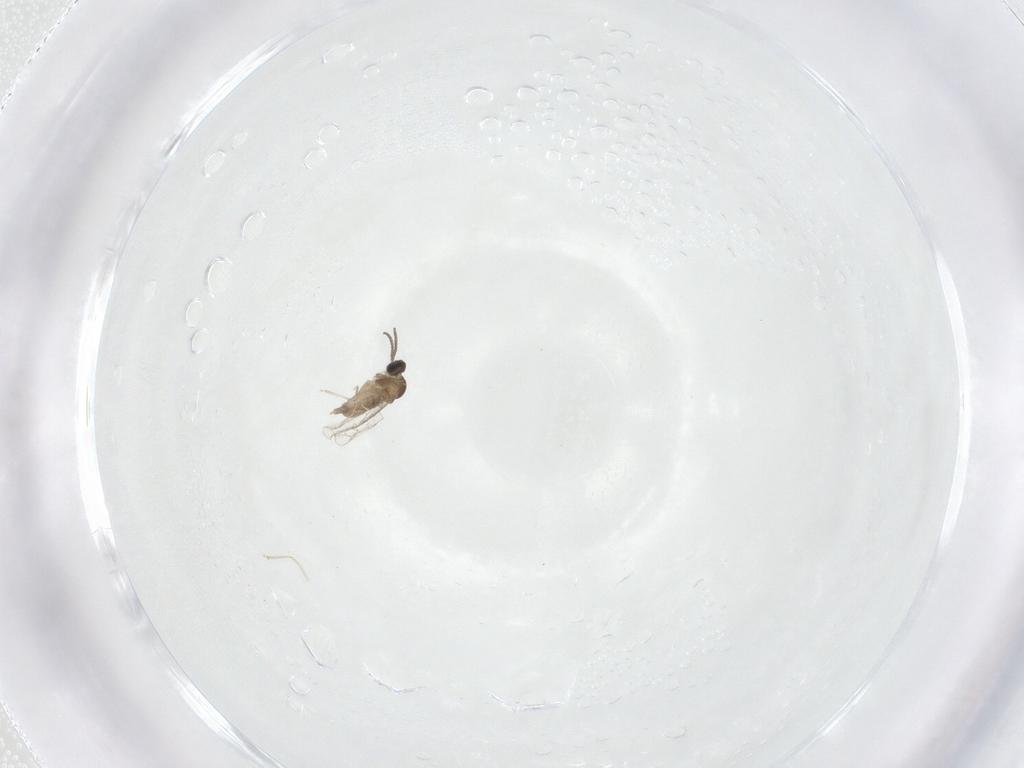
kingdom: Animalia
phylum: Arthropoda
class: Insecta
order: Diptera
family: Cecidomyiidae
